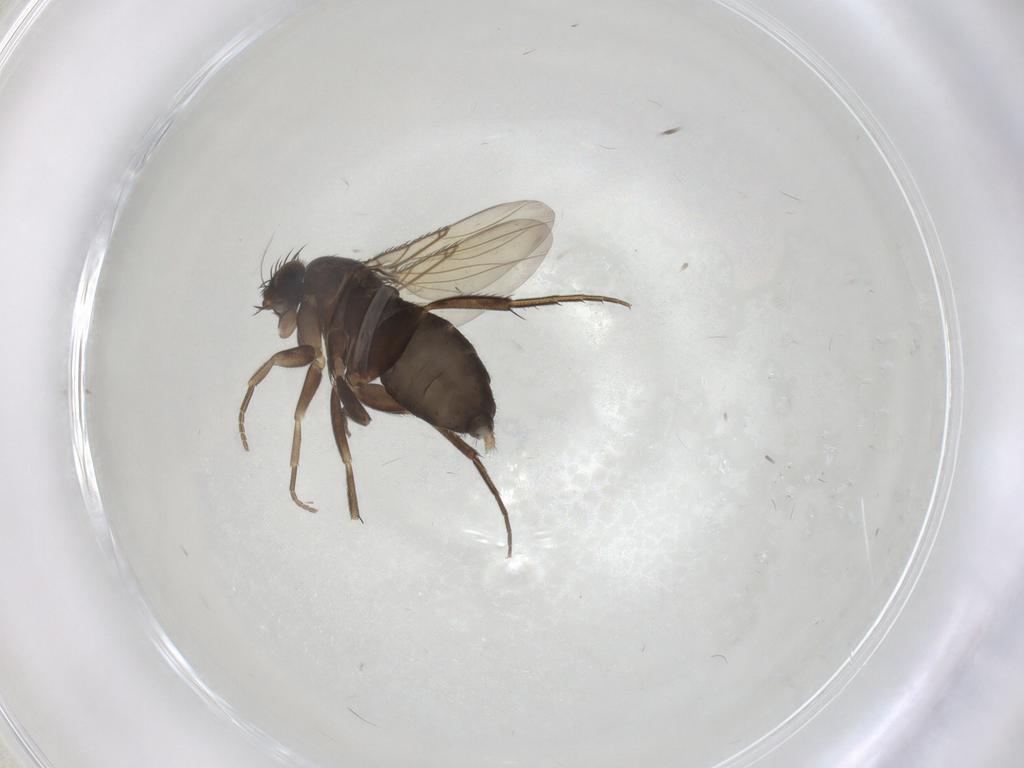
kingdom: Animalia
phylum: Arthropoda
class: Insecta
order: Diptera
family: Phoridae
